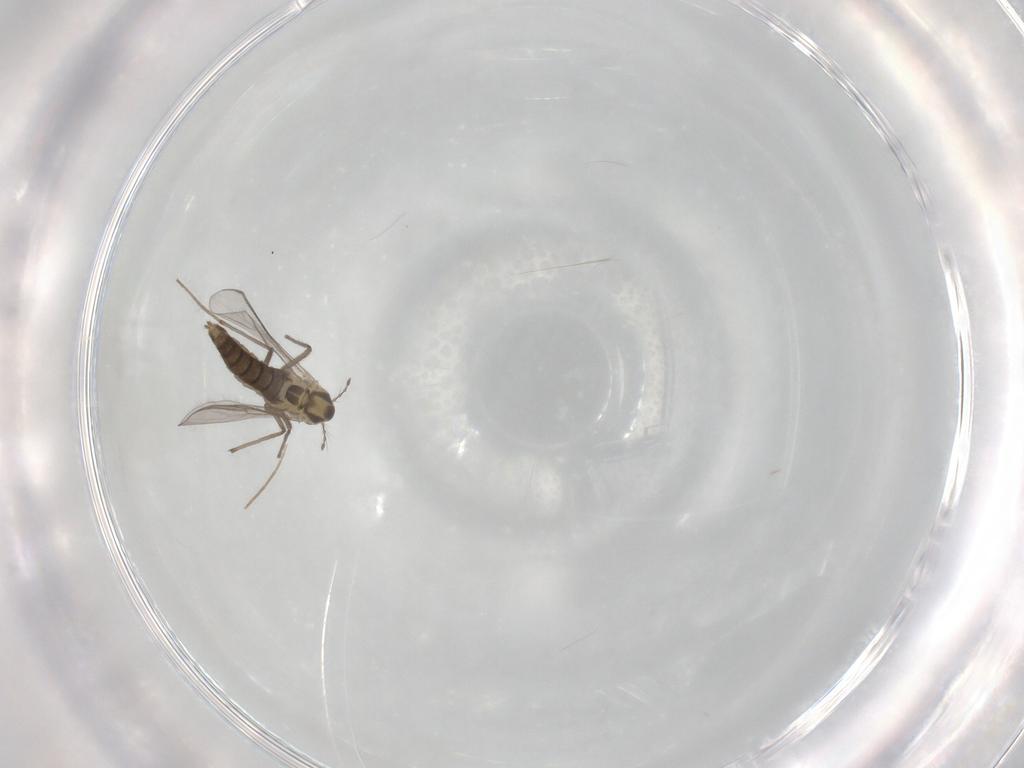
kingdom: Animalia
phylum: Arthropoda
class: Insecta
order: Diptera
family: Chironomidae
